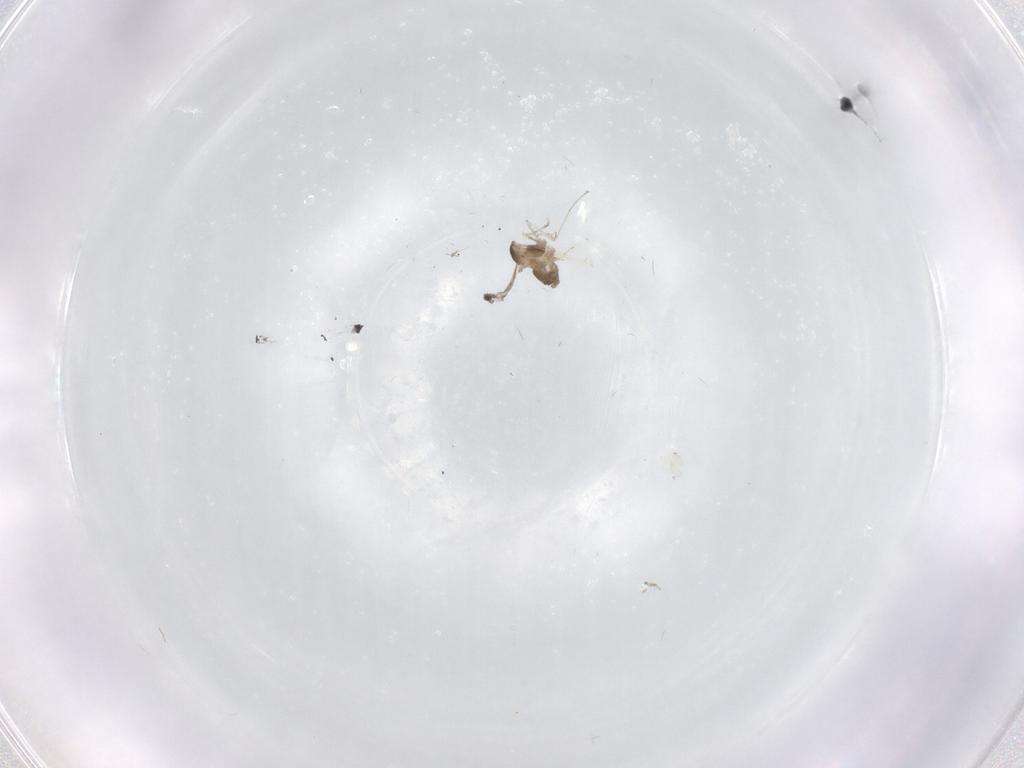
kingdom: Animalia
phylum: Arthropoda
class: Insecta
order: Diptera
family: Cecidomyiidae
